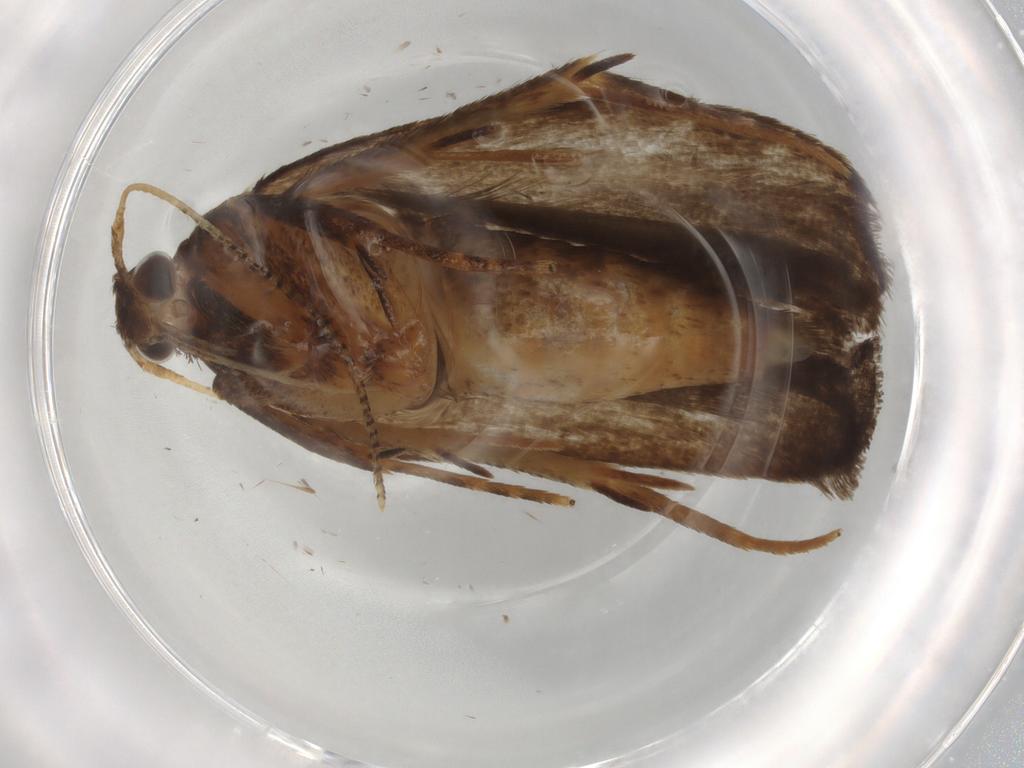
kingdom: Animalia
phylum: Arthropoda
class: Insecta
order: Lepidoptera
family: Autostichidae
